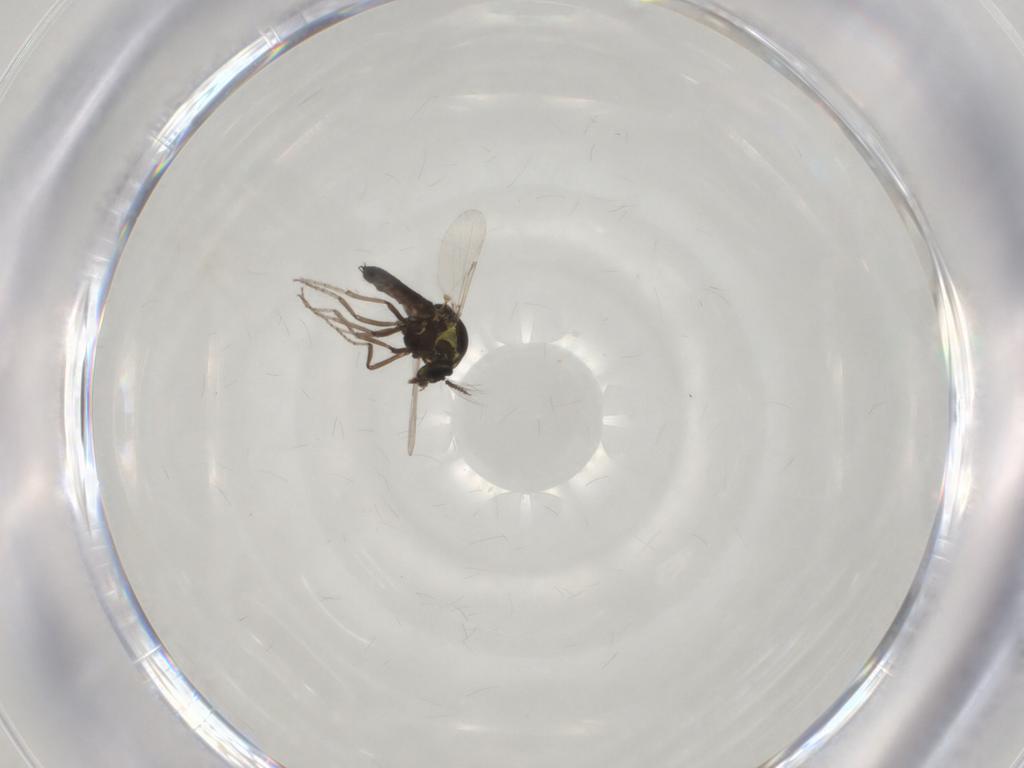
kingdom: Animalia
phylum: Arthropoda
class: Insecta
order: Diptera
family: Ceratopogonidae
